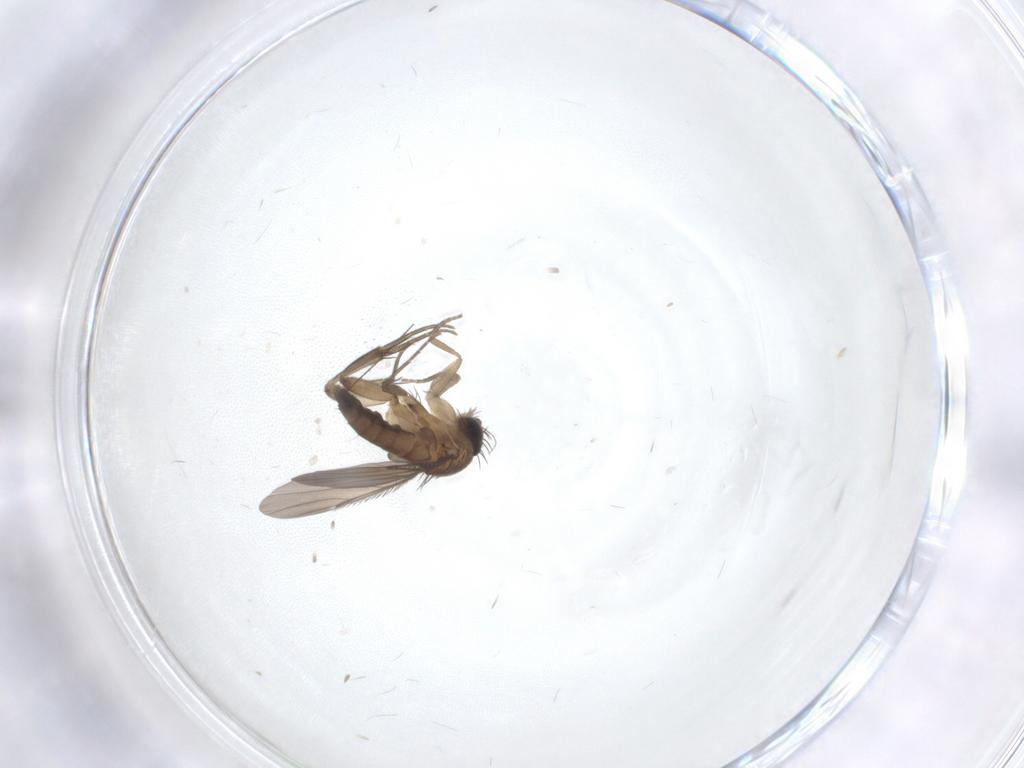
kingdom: Animalia
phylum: Arthropoda
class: Insecta
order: Diptera
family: Phoridae
